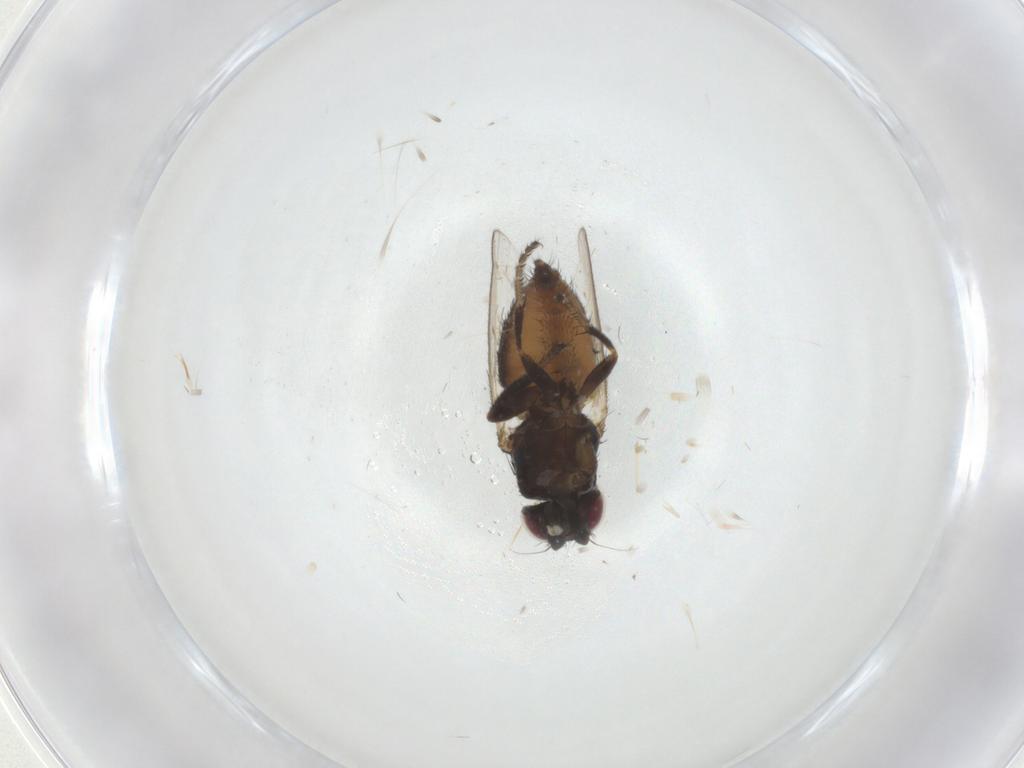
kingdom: Animalia
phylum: Arthropoda
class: Insecta
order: Diptera
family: Milichiidae
